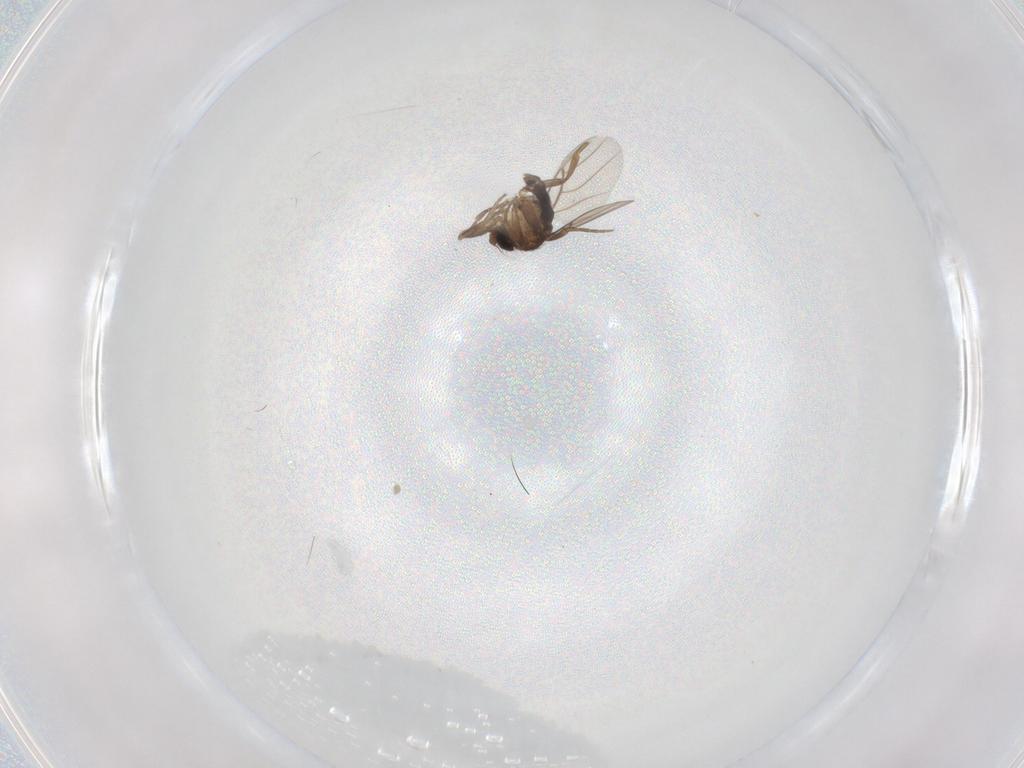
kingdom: Animalia
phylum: Arthropoda
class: Insecta
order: Diptera
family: Phoridae
